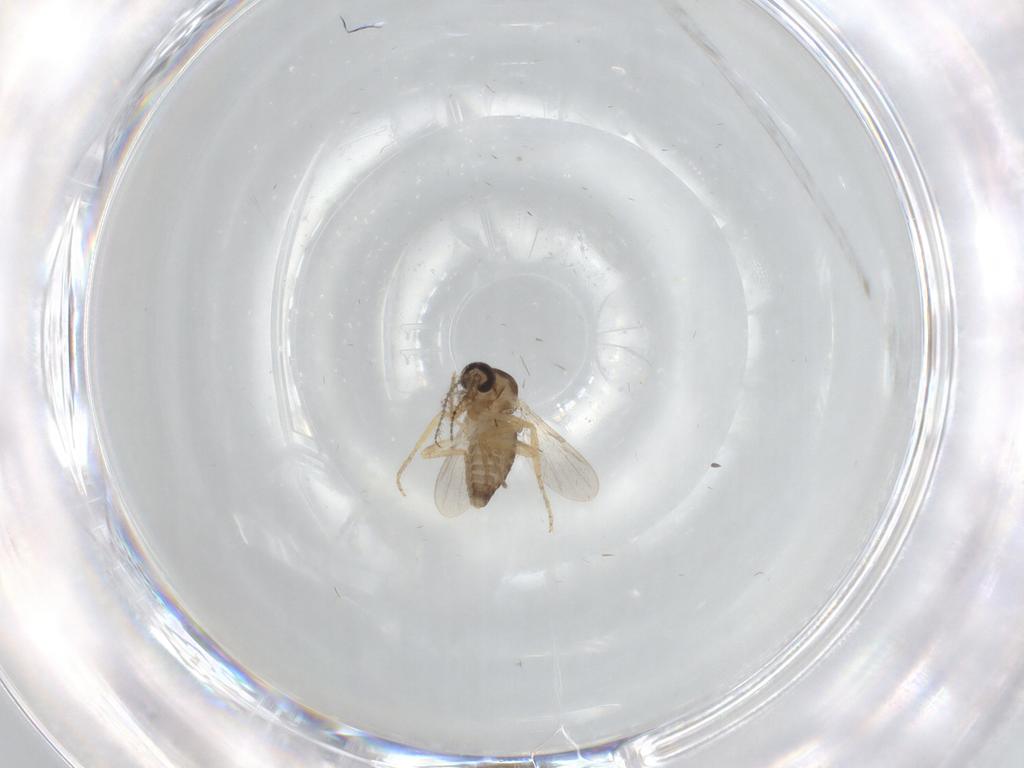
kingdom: Animalia
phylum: Arthropoda
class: Insecta
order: Diptera
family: Ceratopogonidae
